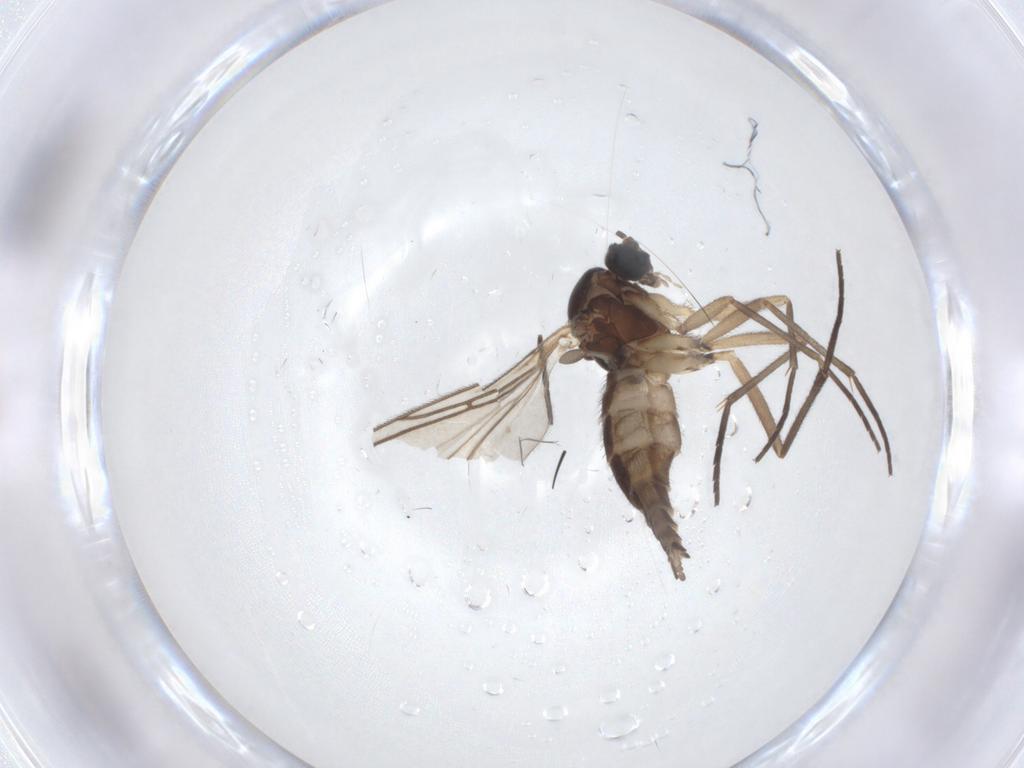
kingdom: Animalia
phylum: Arthropoda
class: Insecta
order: Diptera
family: Sciaridae
